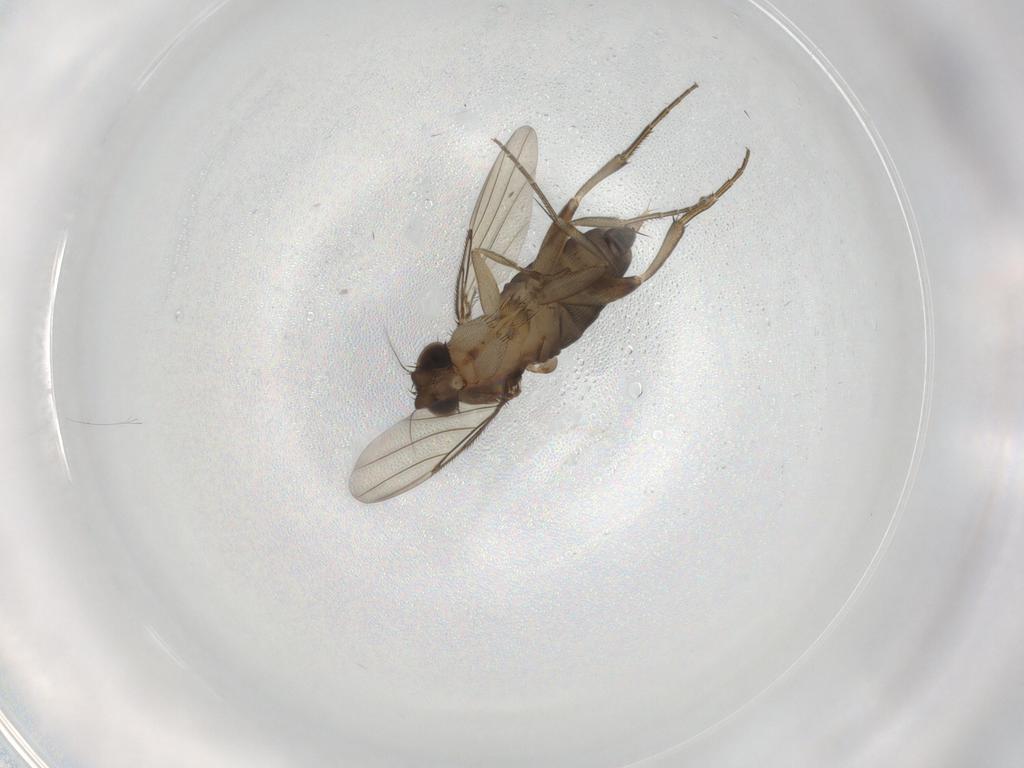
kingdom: Animalia
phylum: Arthropoda
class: Insecta
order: Diptera
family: Phoridae
